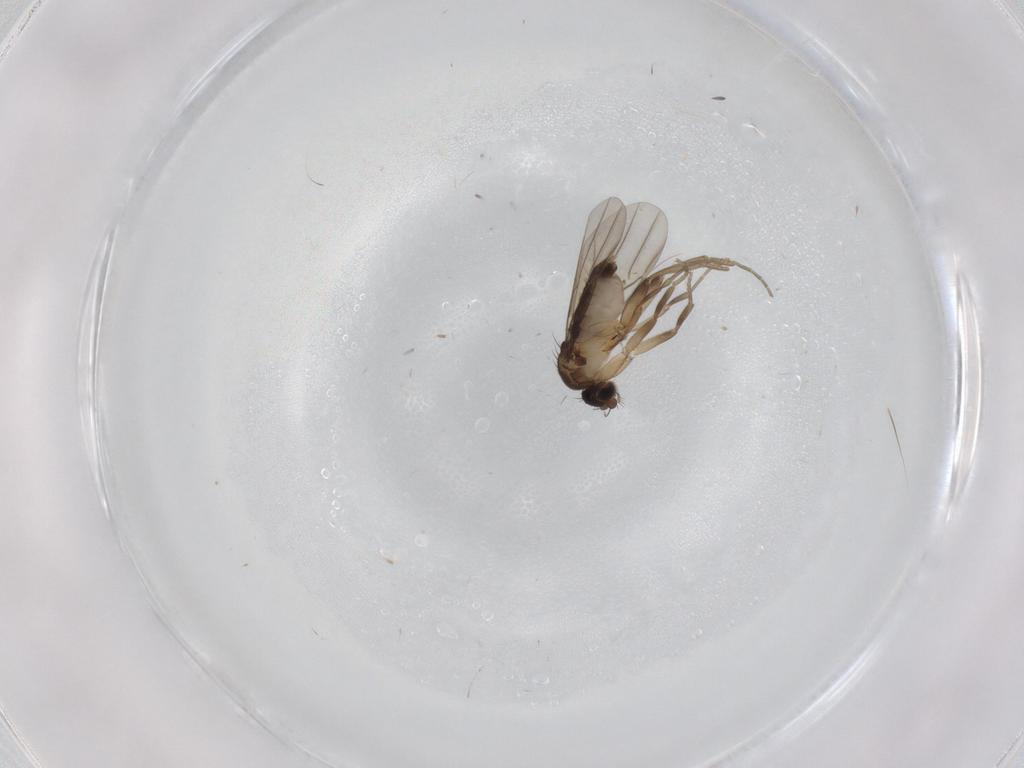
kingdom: Animalia
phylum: Arthropoda
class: Insecta
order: Diptera
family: Phoridae
